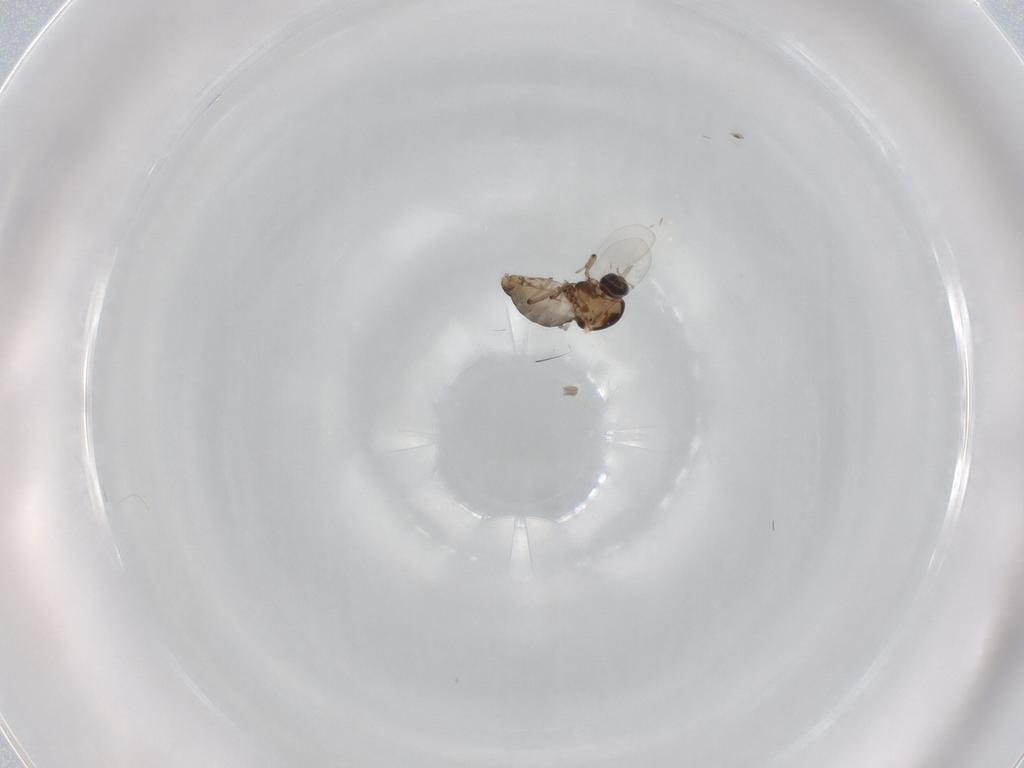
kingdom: Animalia
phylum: Arthropoda
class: Insecta
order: Diptera
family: Sarcophagidae
